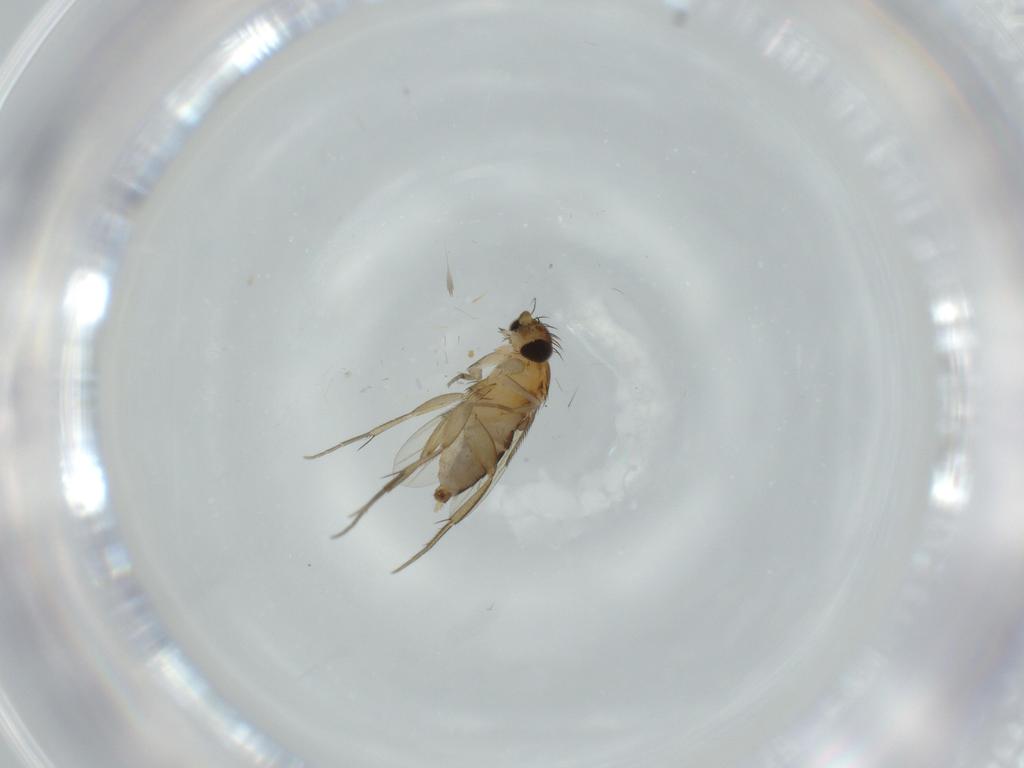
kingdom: Animalia
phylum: Arthropoda
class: Insecta
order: Diptera
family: Phoridae
